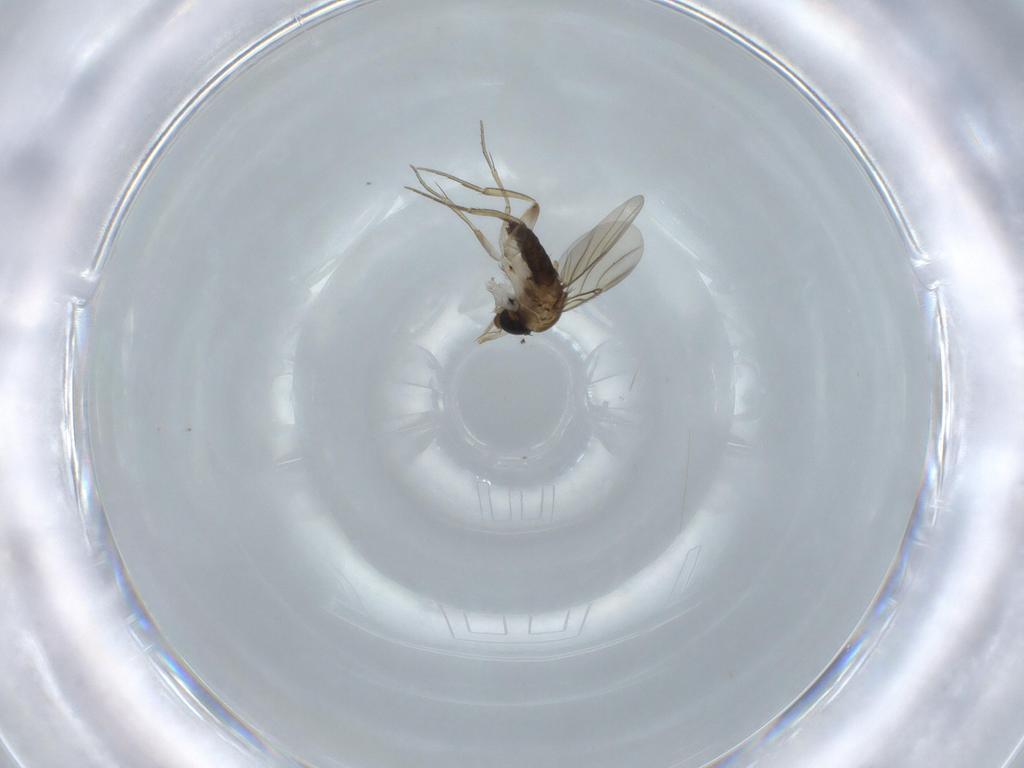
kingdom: Animalia
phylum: Arthropoda
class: Insecta
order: Diptera
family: Phoridae
